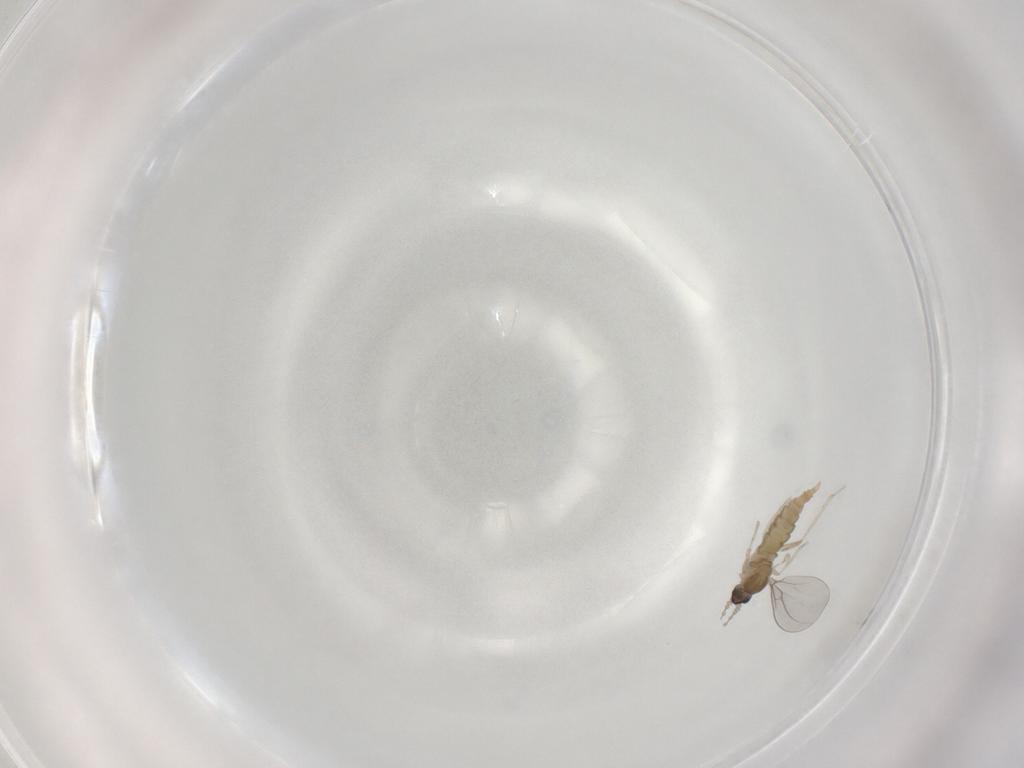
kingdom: Animalia
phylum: Arthropoda
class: Insecta
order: Diptera
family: Cecidomyiidae
